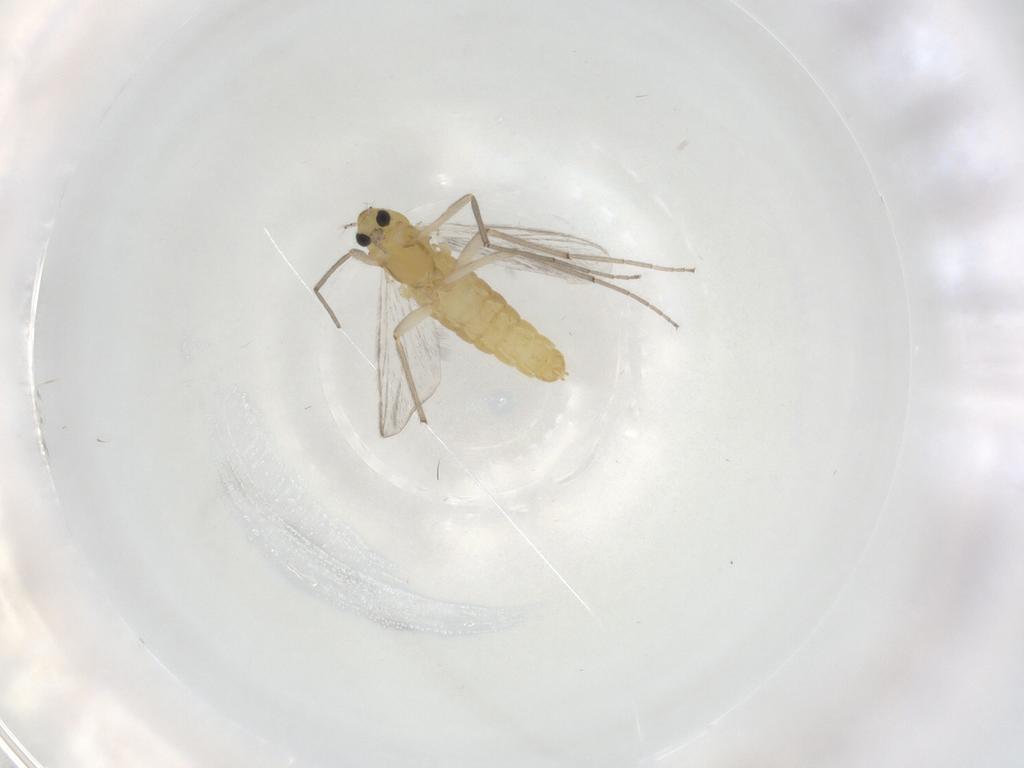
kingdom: Animalia
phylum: Arthropoda
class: Insecta
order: Diptera
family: Chironomidae
